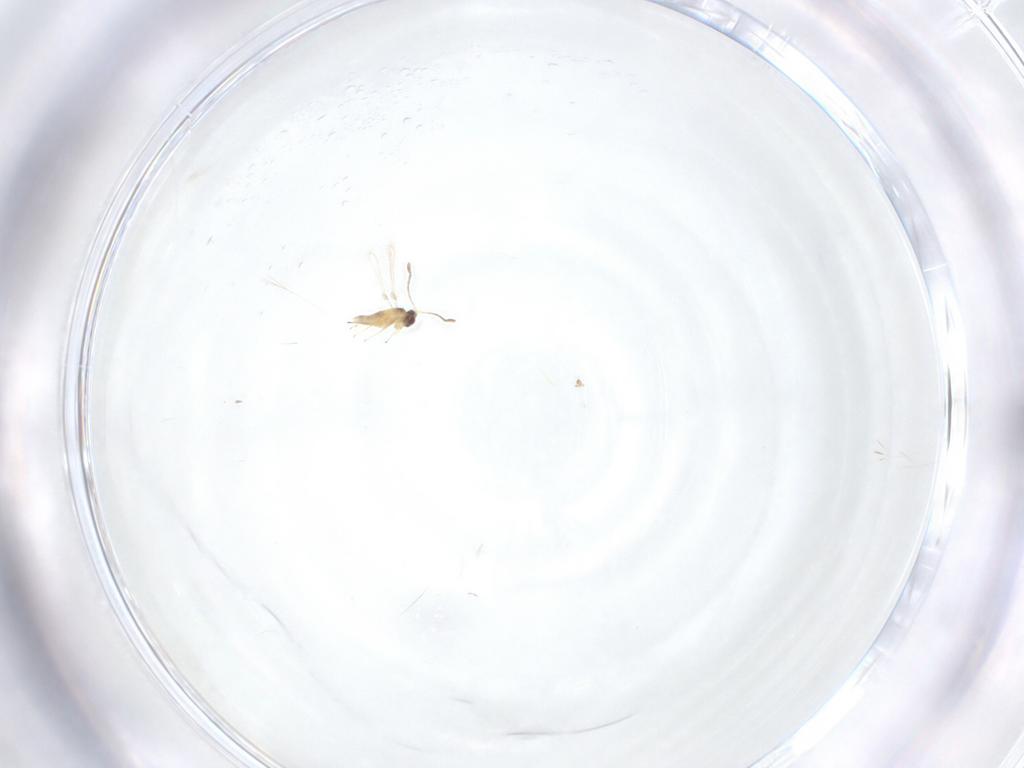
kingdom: Animalia
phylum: Arthropoda
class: Insecta
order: Hymenoptera
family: Mymaridae
